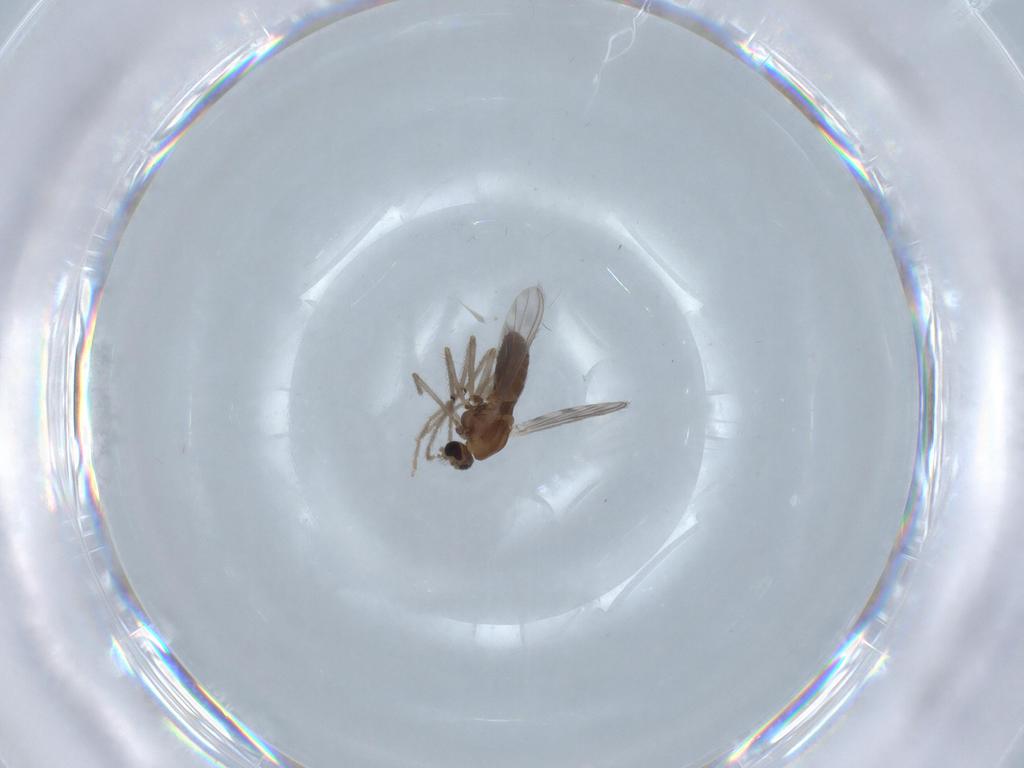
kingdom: Animalia
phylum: Arthropoda
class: Insecta
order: Diptera
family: Chironomidae
